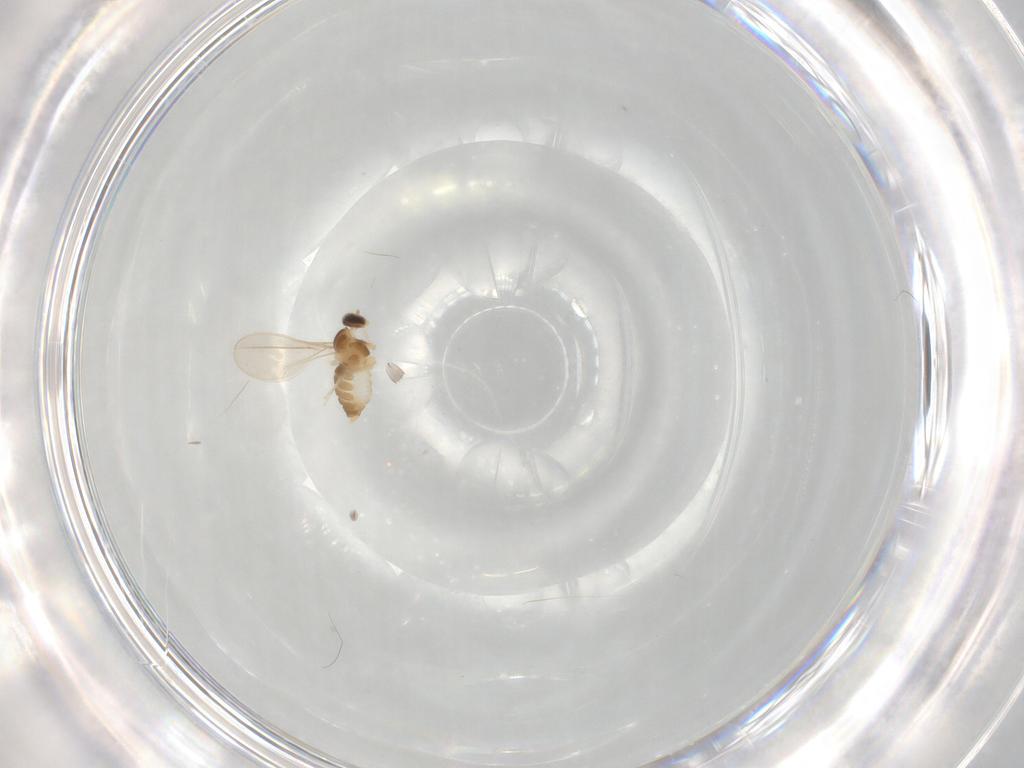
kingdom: Animalia
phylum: Arthropoda
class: Insecta
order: Diptera
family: Cecidomyiidae
